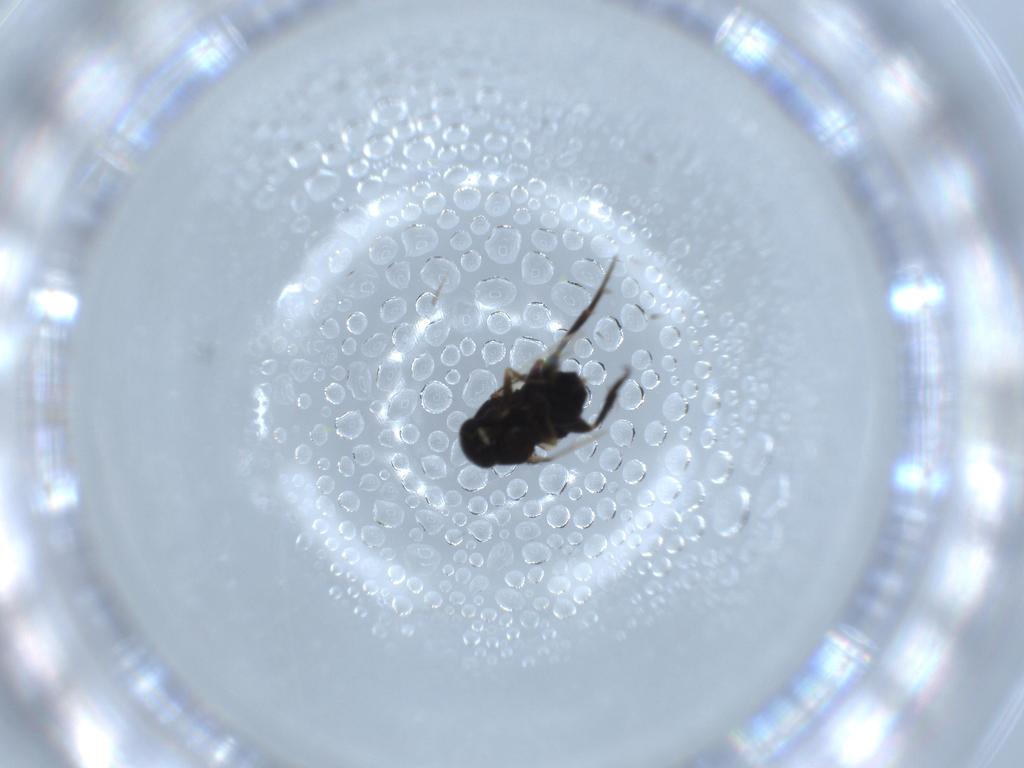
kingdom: Animalia
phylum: Arthropoda
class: Insecta
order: Diptera
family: Phoridae
